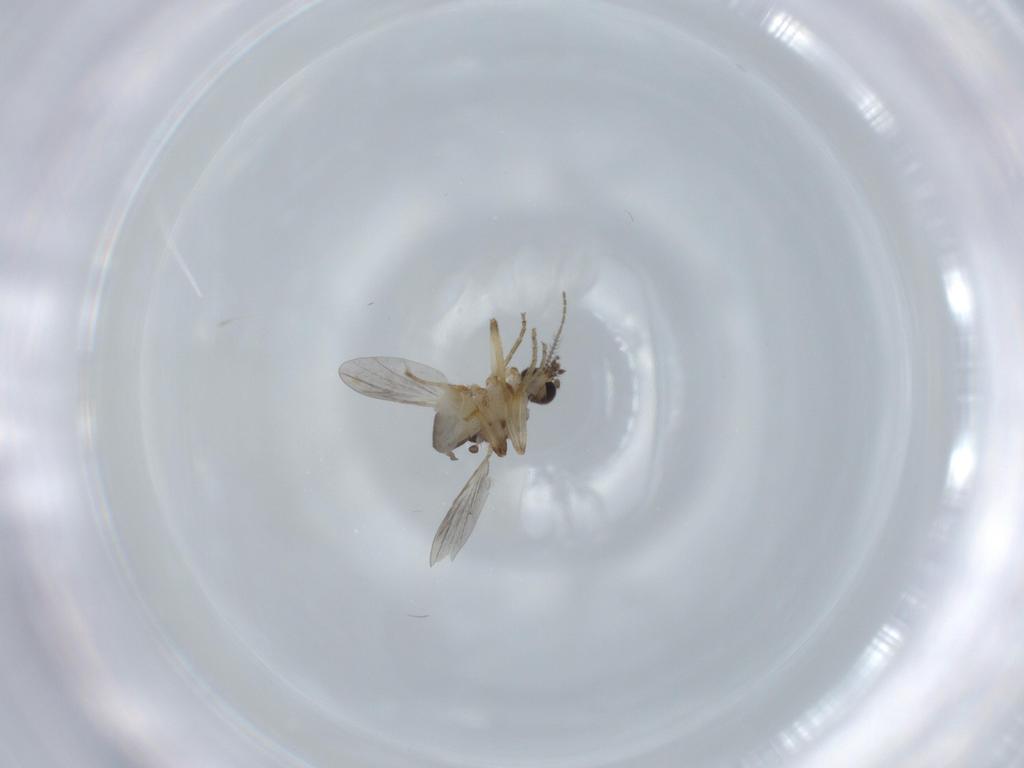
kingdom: Animalia
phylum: Arthropoda
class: Insecta
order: Diptera
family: Ceratopogonidae
